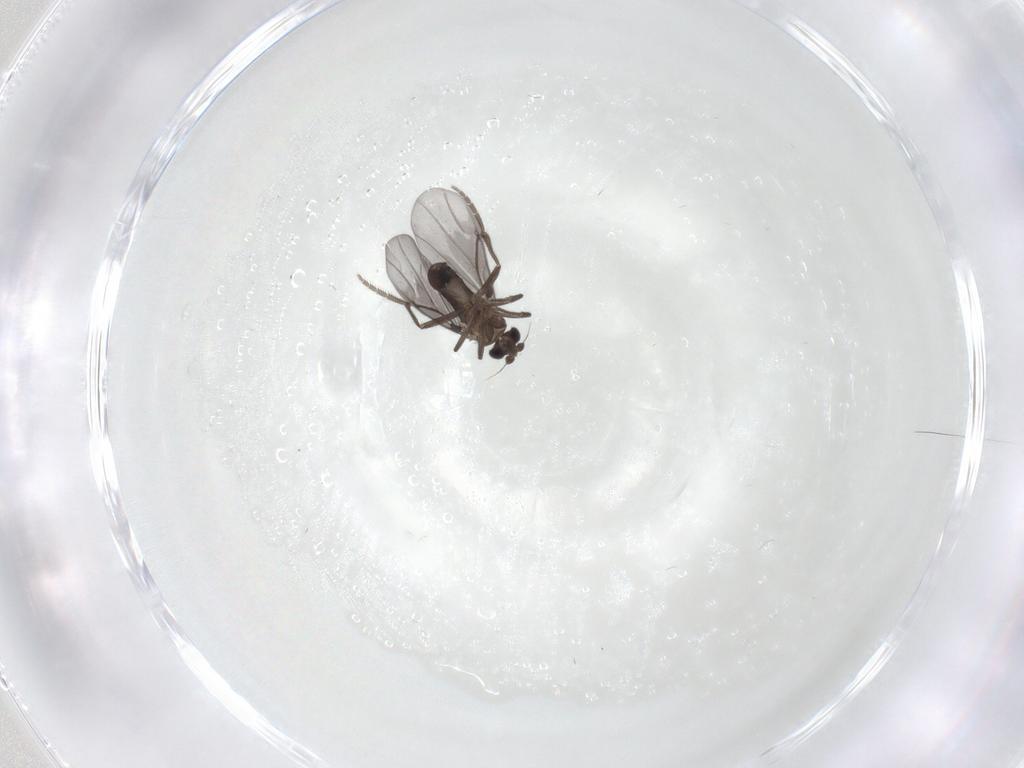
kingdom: Animalia
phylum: Arthropoda
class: Insecta
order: Diptera
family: Phoridae
